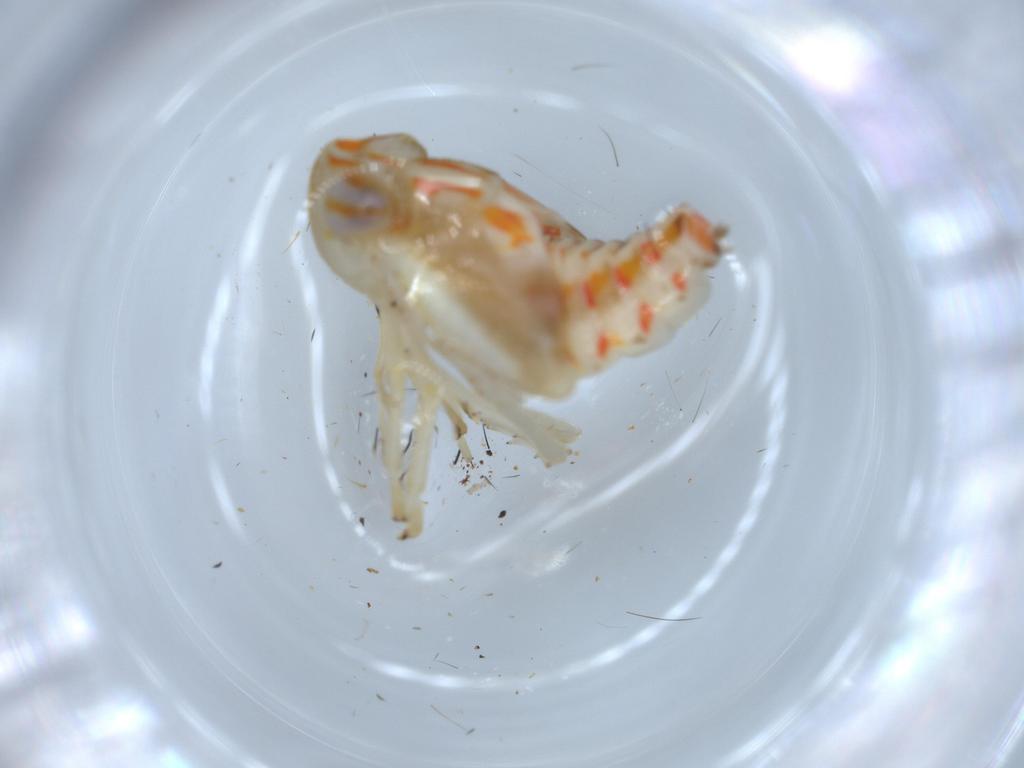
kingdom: Animalia
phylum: Arthropoda
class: Insecta
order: Hemiptera
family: Nogodinidae
